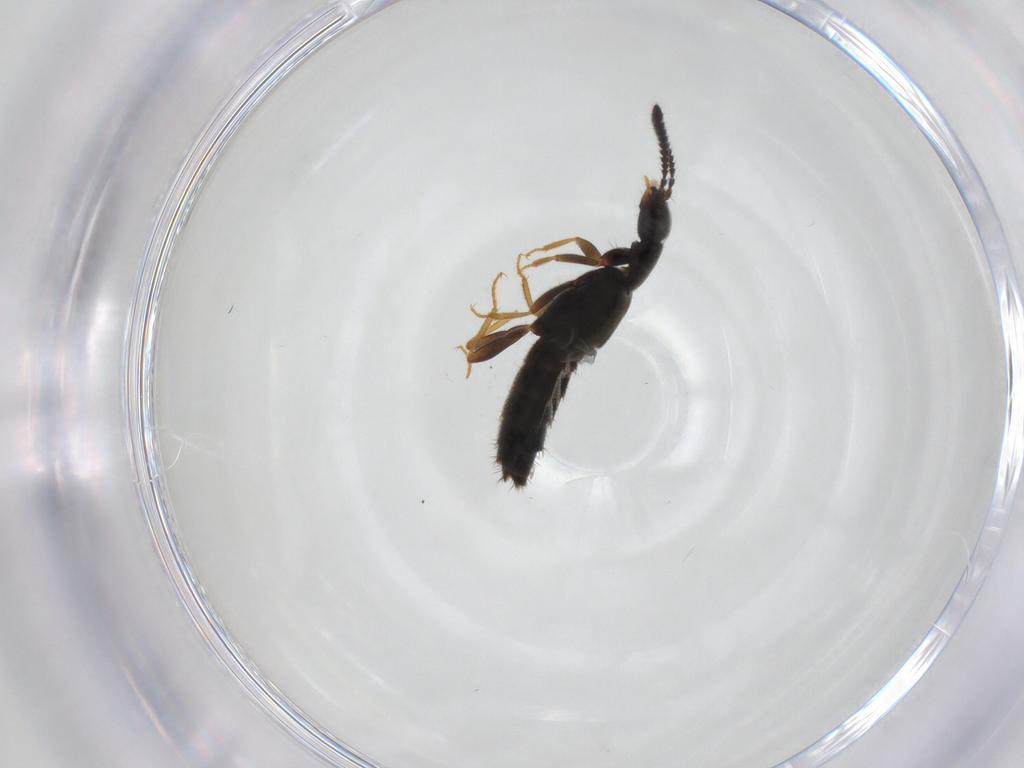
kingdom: Animalia
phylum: Arthropoda
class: Insecta
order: Coleoptera
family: Staphylinidae
